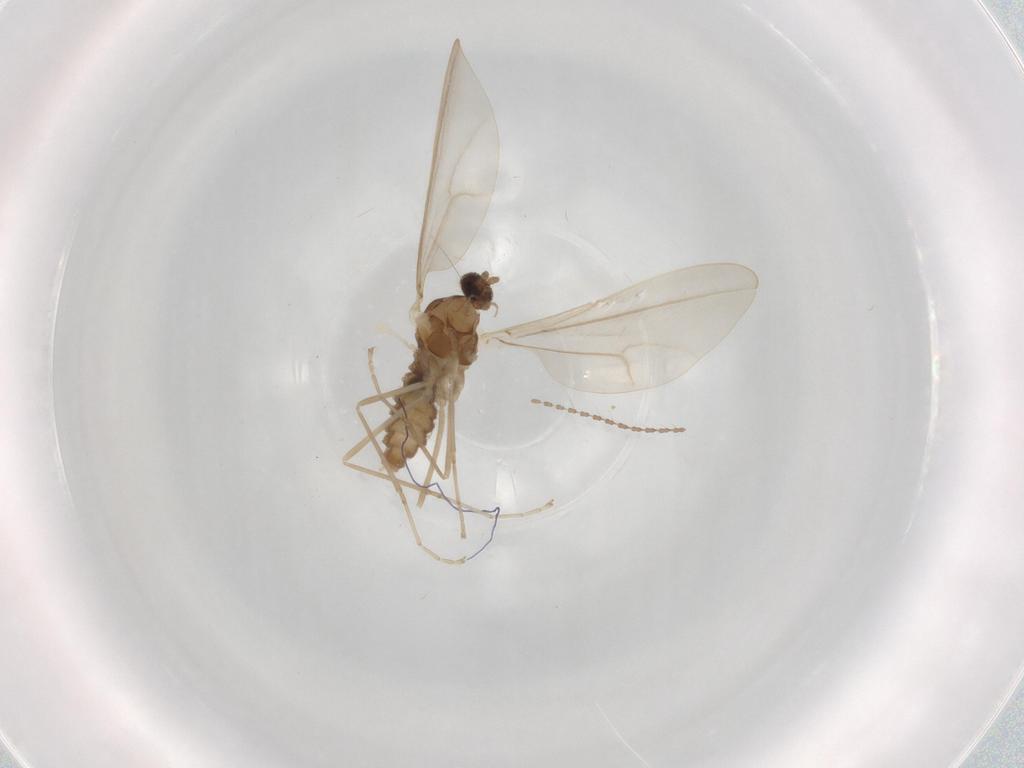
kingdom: Animalia
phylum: Arthropoda
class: Insecta
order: Diptera
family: Cecidomyiidae
